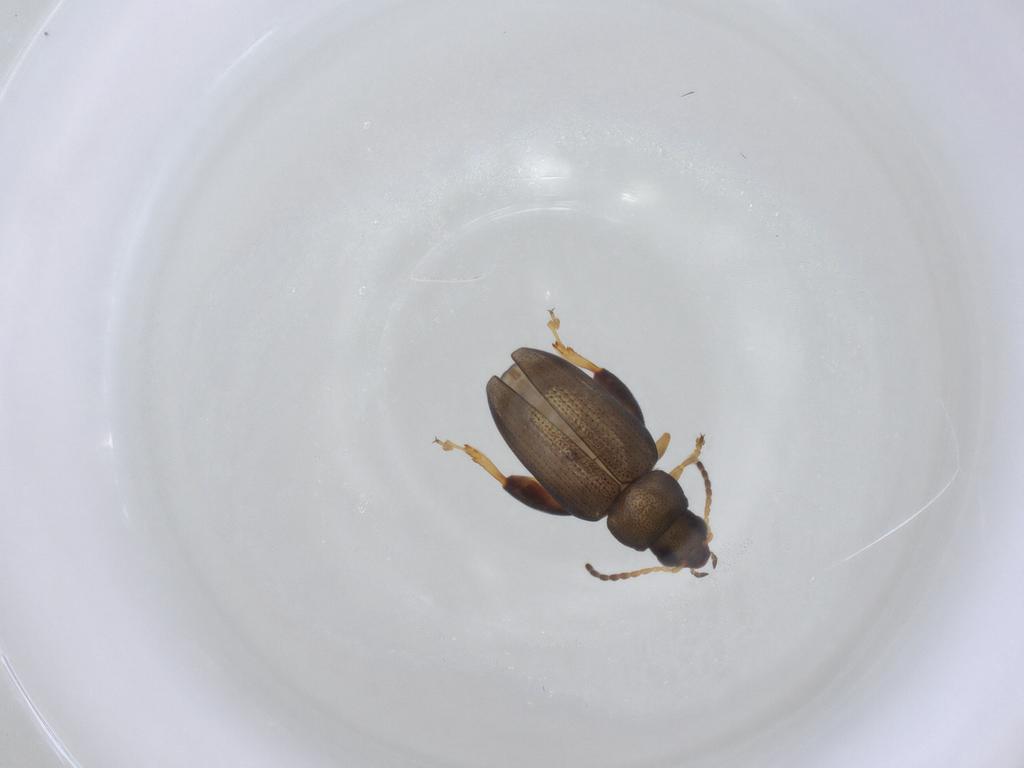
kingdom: Animalia
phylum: Arthropoda
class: Insecta
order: Coleoptera
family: Chrysomelidae
